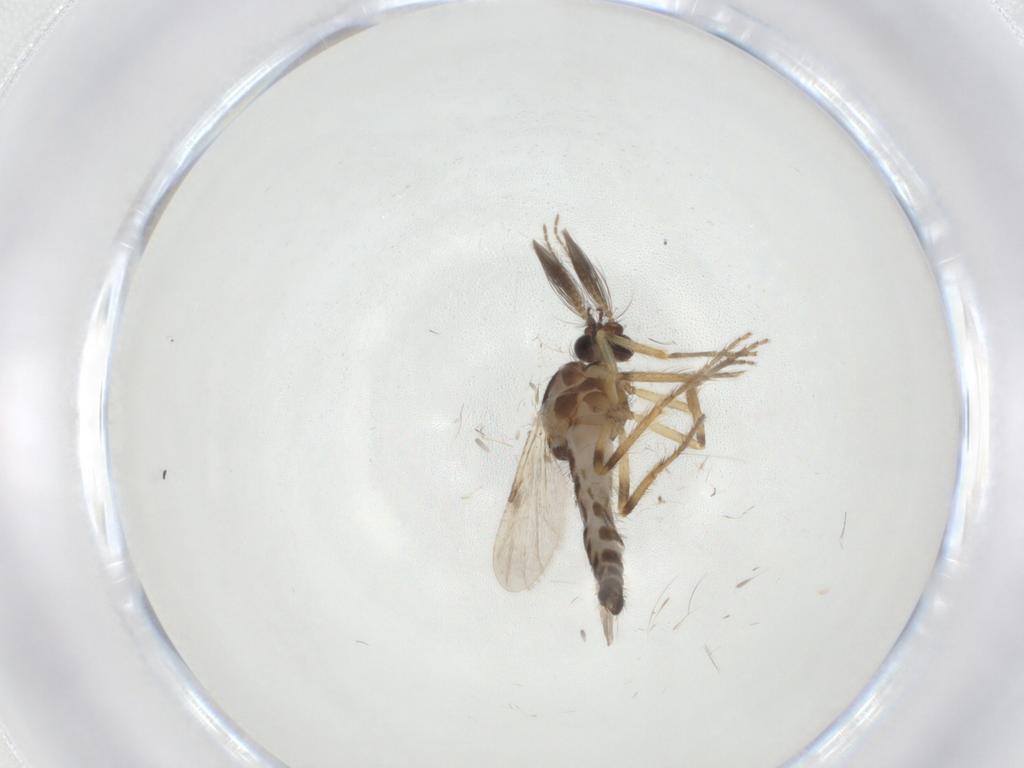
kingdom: Animalia
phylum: Arthropoda
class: Insecta
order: Diptera
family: Ceratopogonidae
